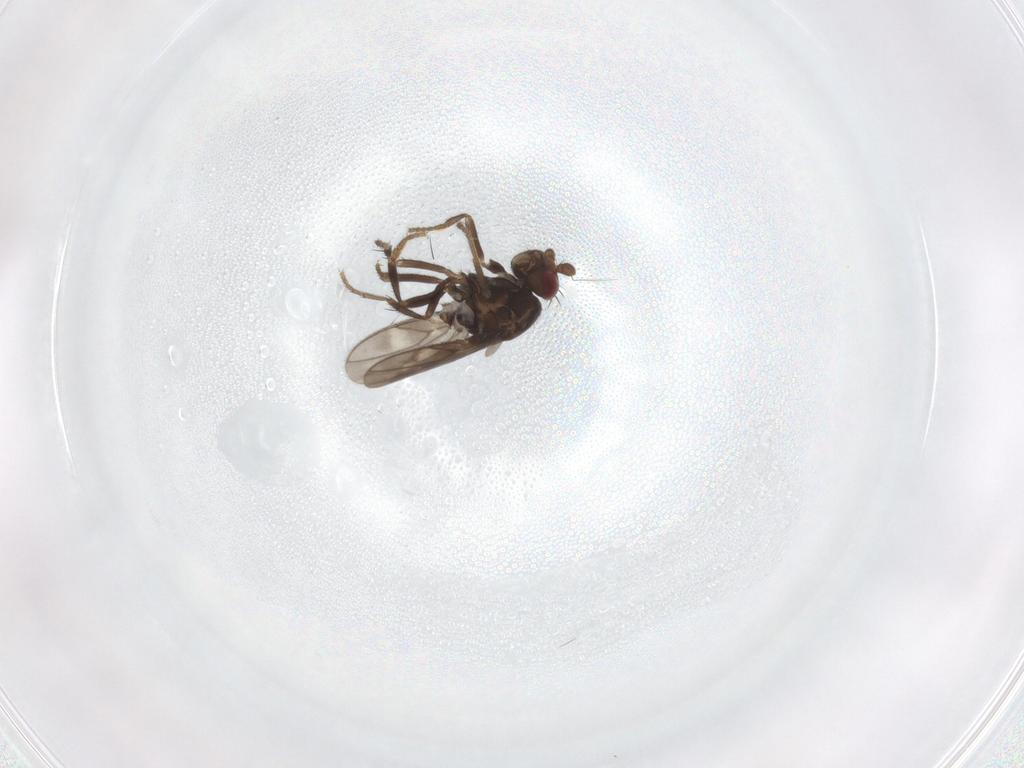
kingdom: Animalia
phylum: Arthropoda
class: Insecta
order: Diptera
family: Sphaeroceridae
